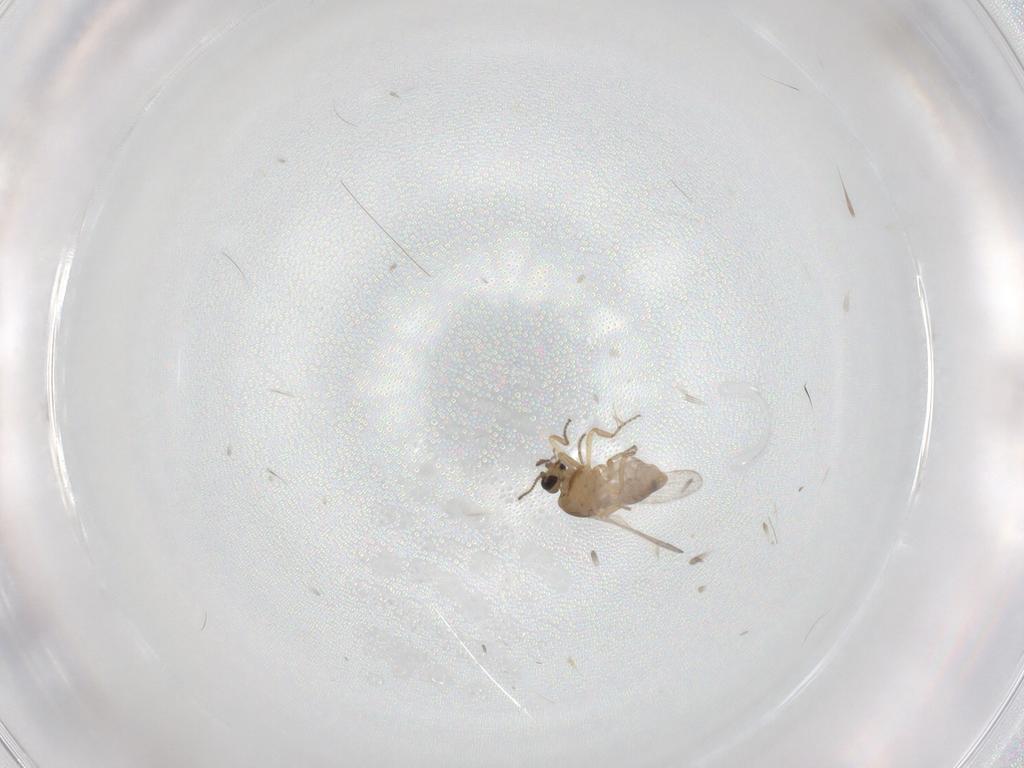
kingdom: Animalia
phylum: Arthropoda
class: Insecta
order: Diptera
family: Ceratopogonidae
